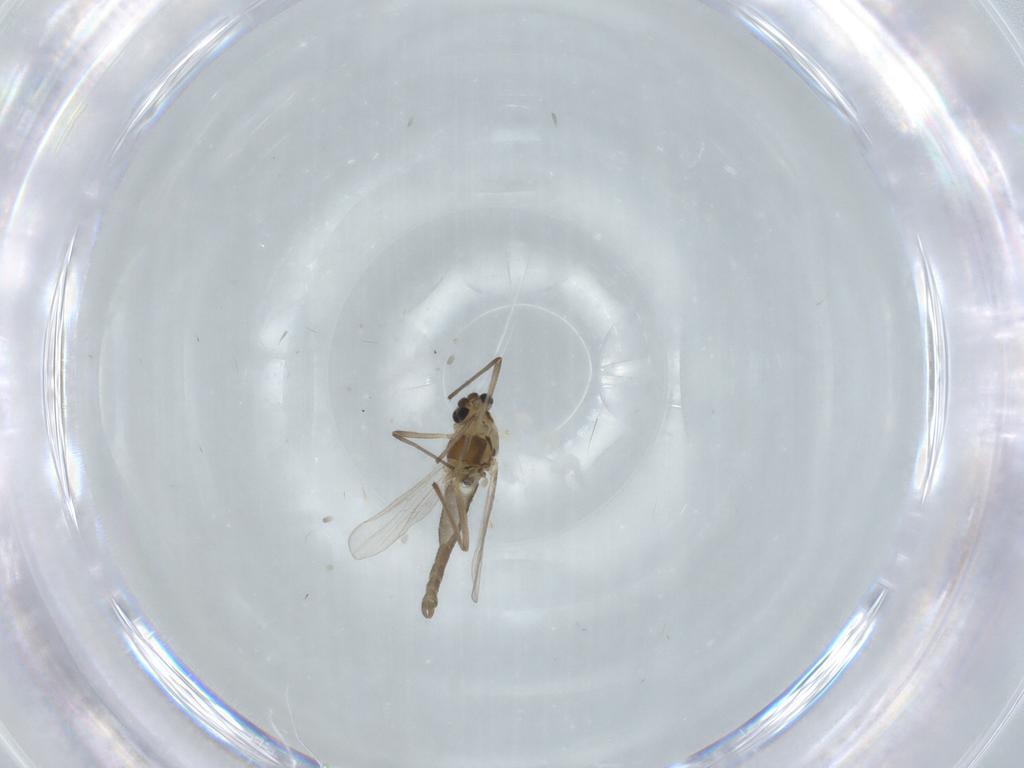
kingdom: Animalia
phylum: Arthropoda
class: Insecta
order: Diptera
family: Chironomidae
